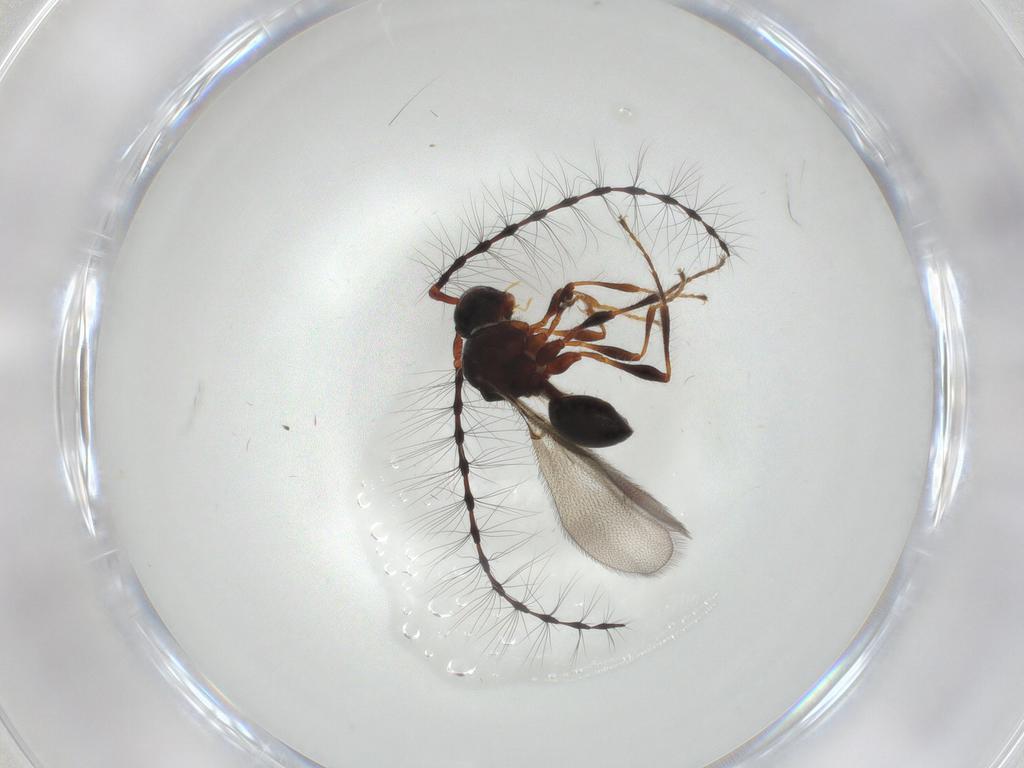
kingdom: Animalia
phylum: Arthropoda
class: Insecta
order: Hymenoptera
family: Diapriidae
